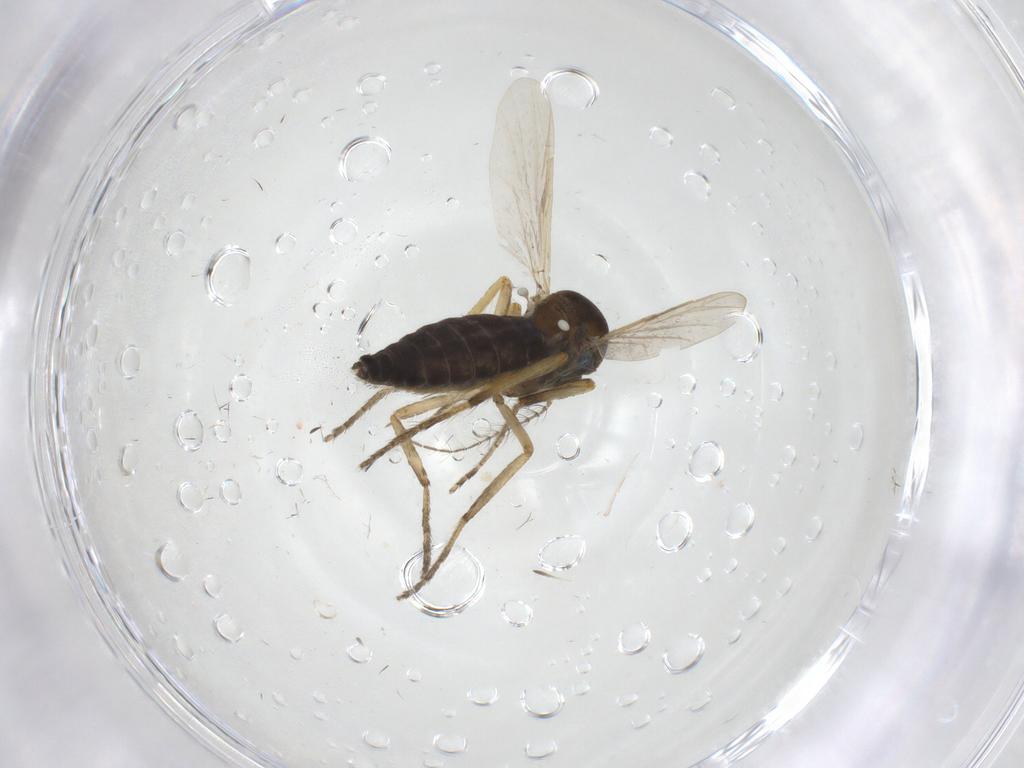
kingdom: Animalia
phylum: Arthropoda
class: Insecta
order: Diptera
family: Ceratopogonidae
